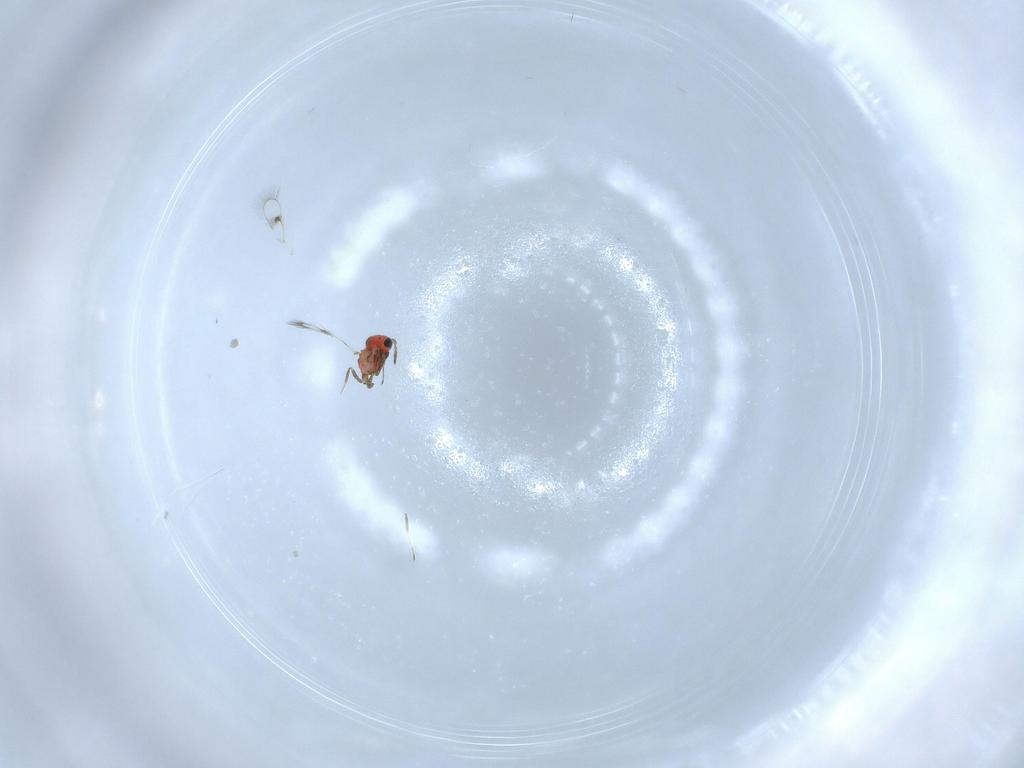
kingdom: Animalia
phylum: Arthropoda
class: Insecta
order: Hymenoptera
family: Trichogrammatidae
